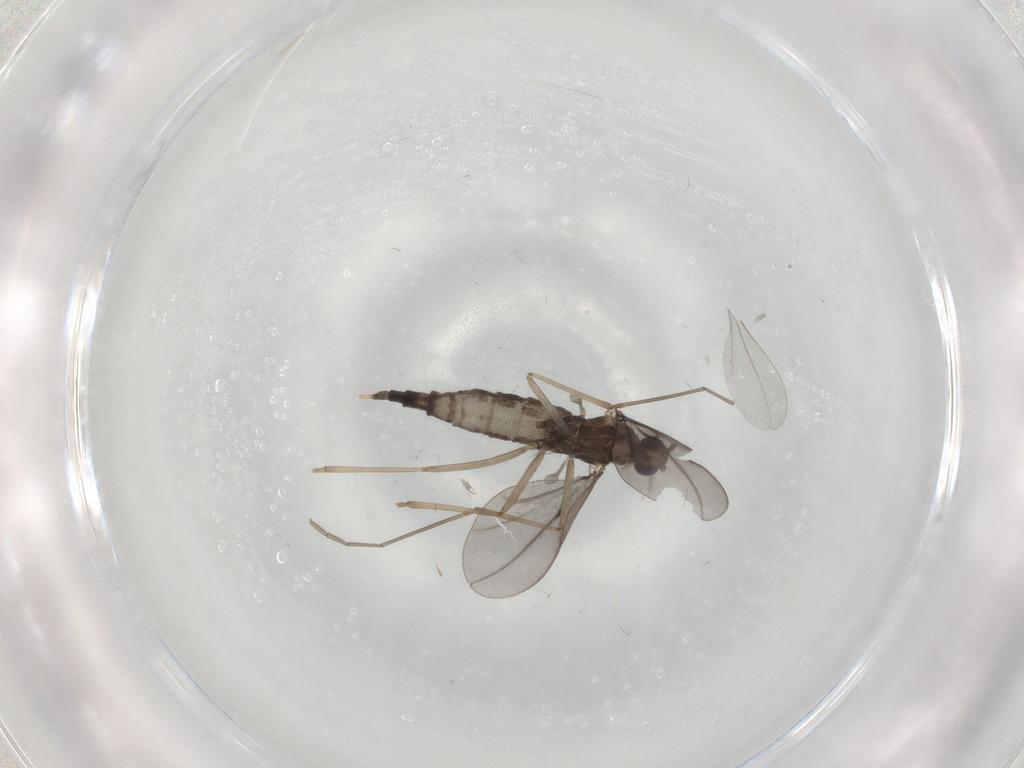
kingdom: Animalia
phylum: Arthropoda
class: Insecta
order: Diptera
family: Cecidomyiidae
